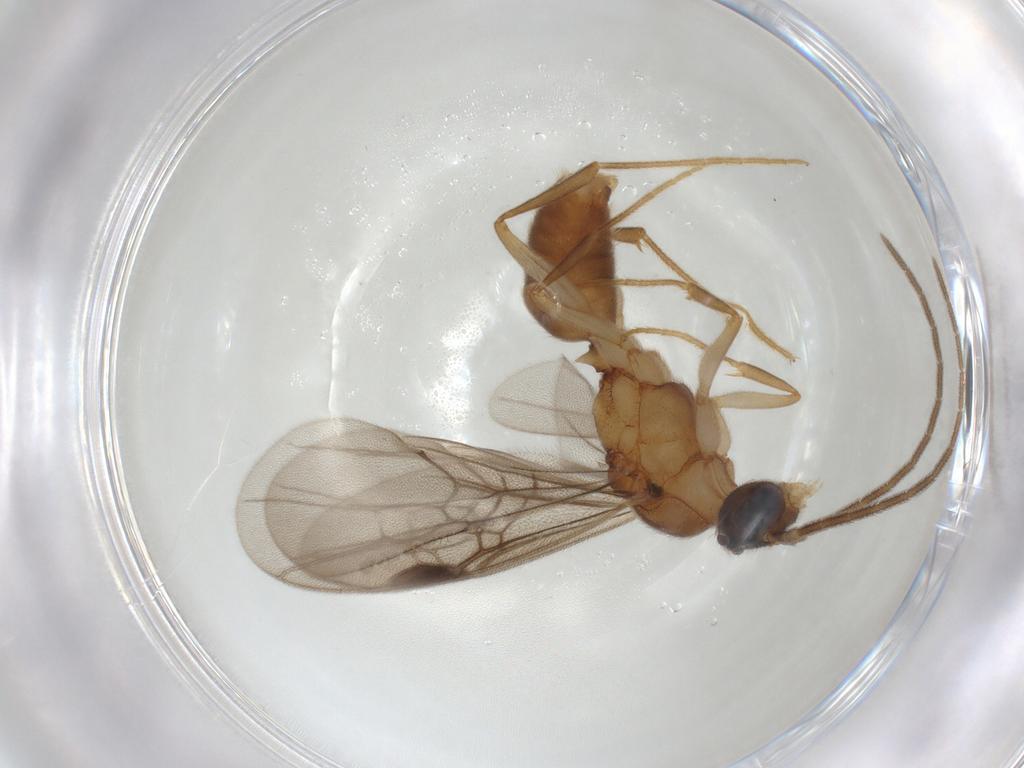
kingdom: Animalia
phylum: Arthropoda
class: Insecta
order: Hymenoptera
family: Formicidae
